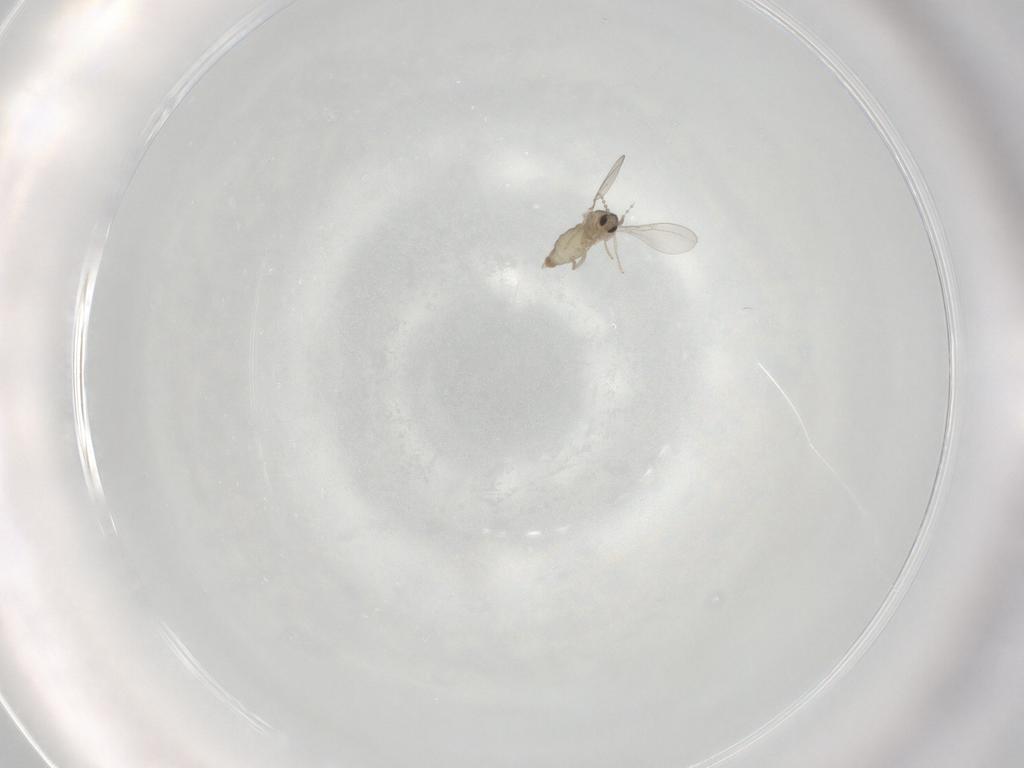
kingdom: Animalia
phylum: Arthropoda
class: Insecta
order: Diptera
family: Cecidomyiidae
